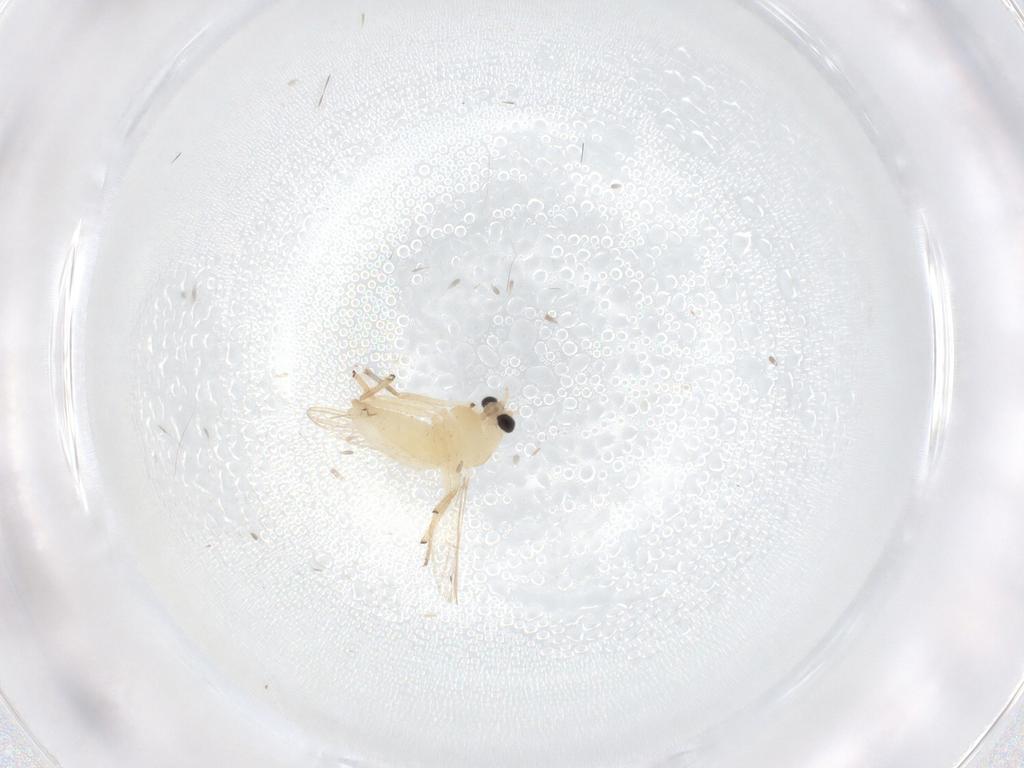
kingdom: Animalia
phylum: Arthropoda
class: Insecta
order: Diptera
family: Chironomidae
